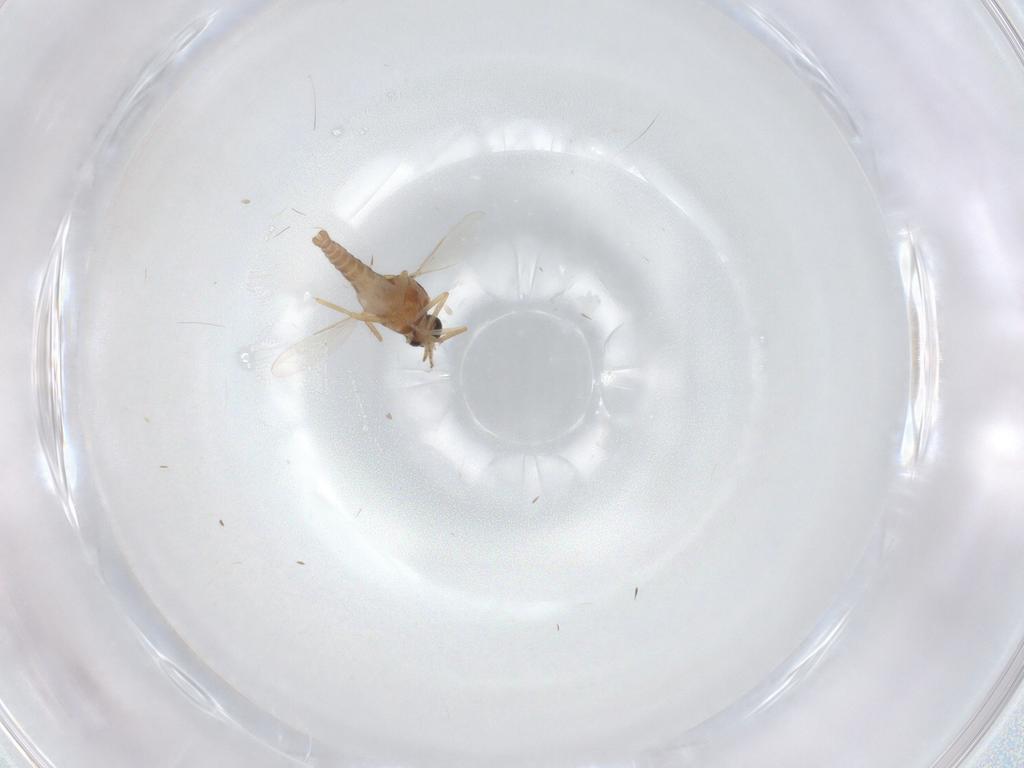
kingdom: Animalia
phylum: Arthropoda
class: Insecta
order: Diptera
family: Ceratopogonidae
